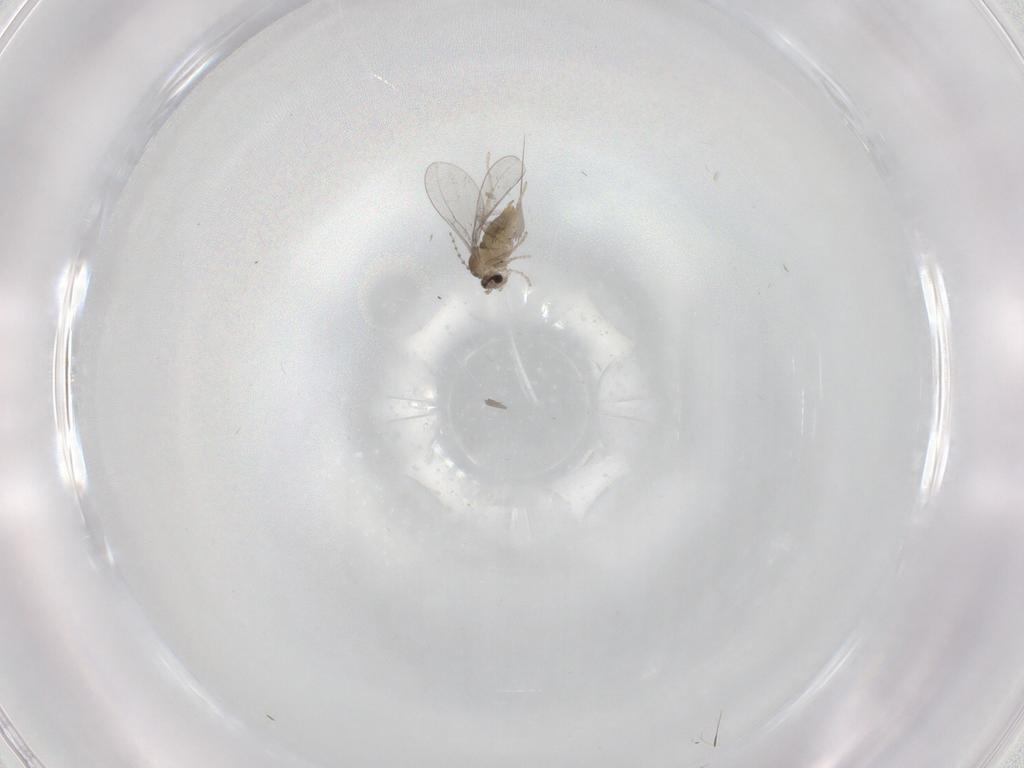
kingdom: Animalia
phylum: Arthropoda
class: Insecta
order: Diptera
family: Cecidomyiidae
